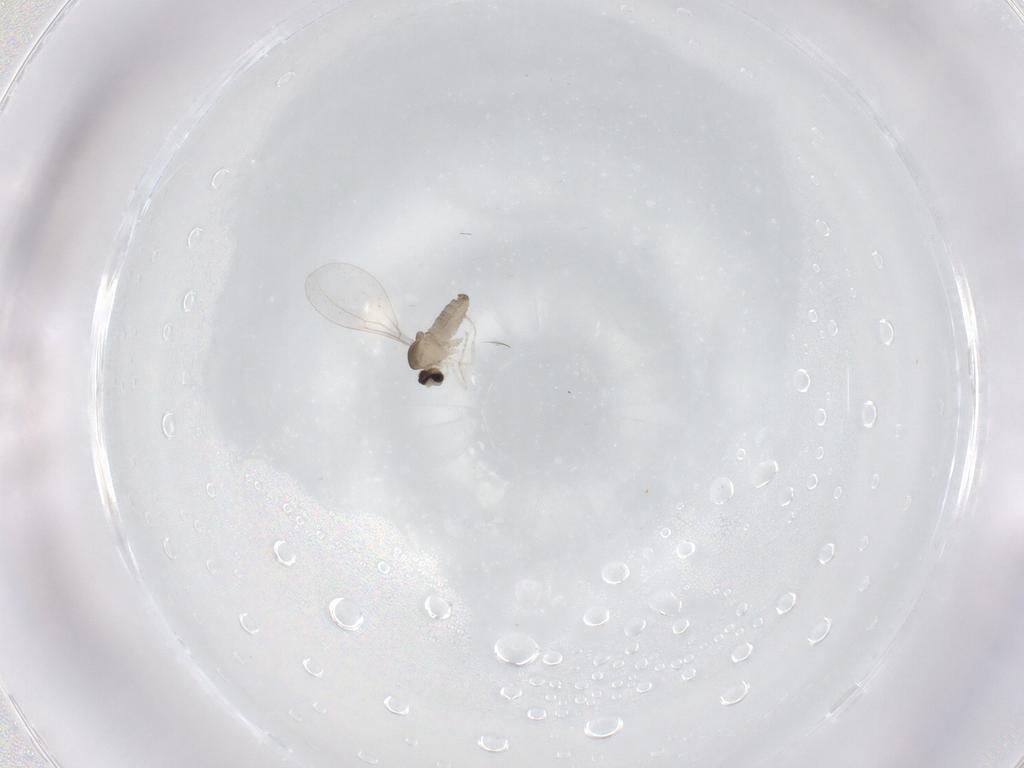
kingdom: Animalia
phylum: Arthropoda
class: Insecta
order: Diptera
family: Cecidomyiidae
